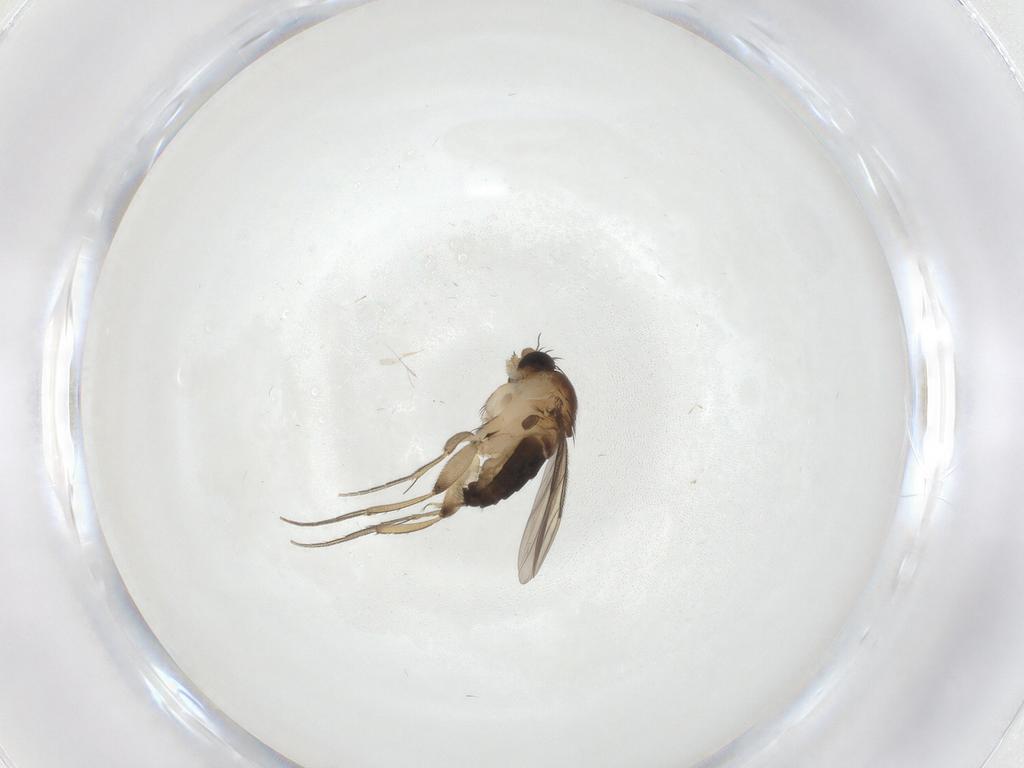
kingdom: Animalia
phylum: Arthropoda
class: Insecta
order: Diptera
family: Phoridae
